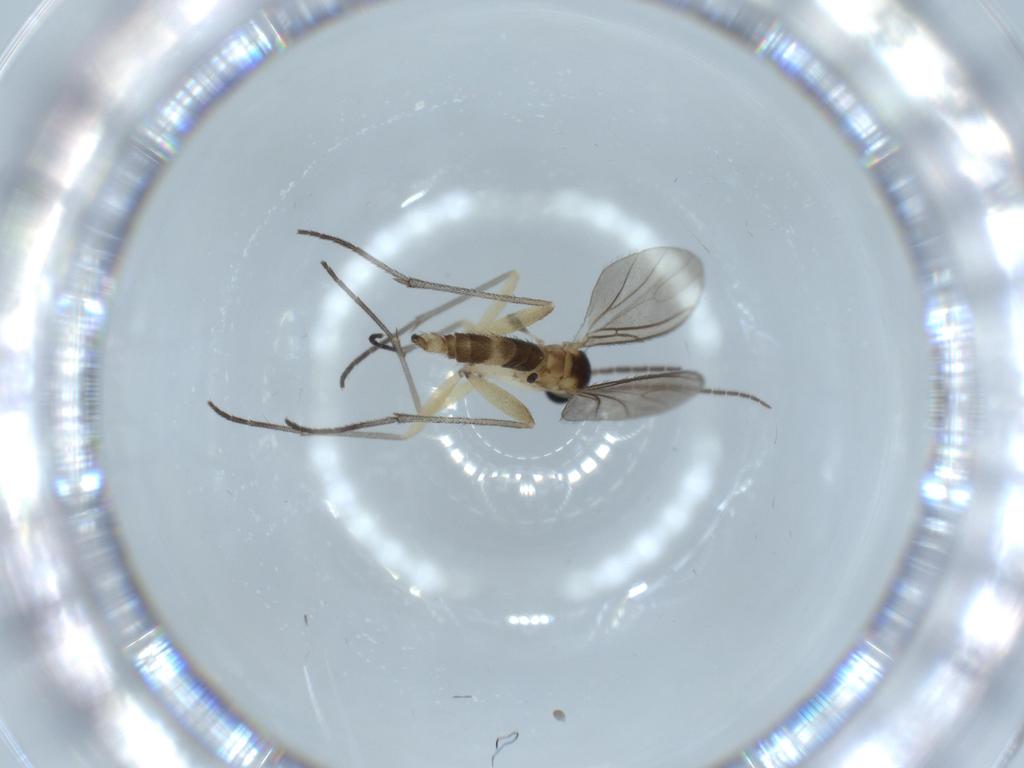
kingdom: Animalia
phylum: Arthropoda
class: Insecta
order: Diptera
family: Sciaridae
